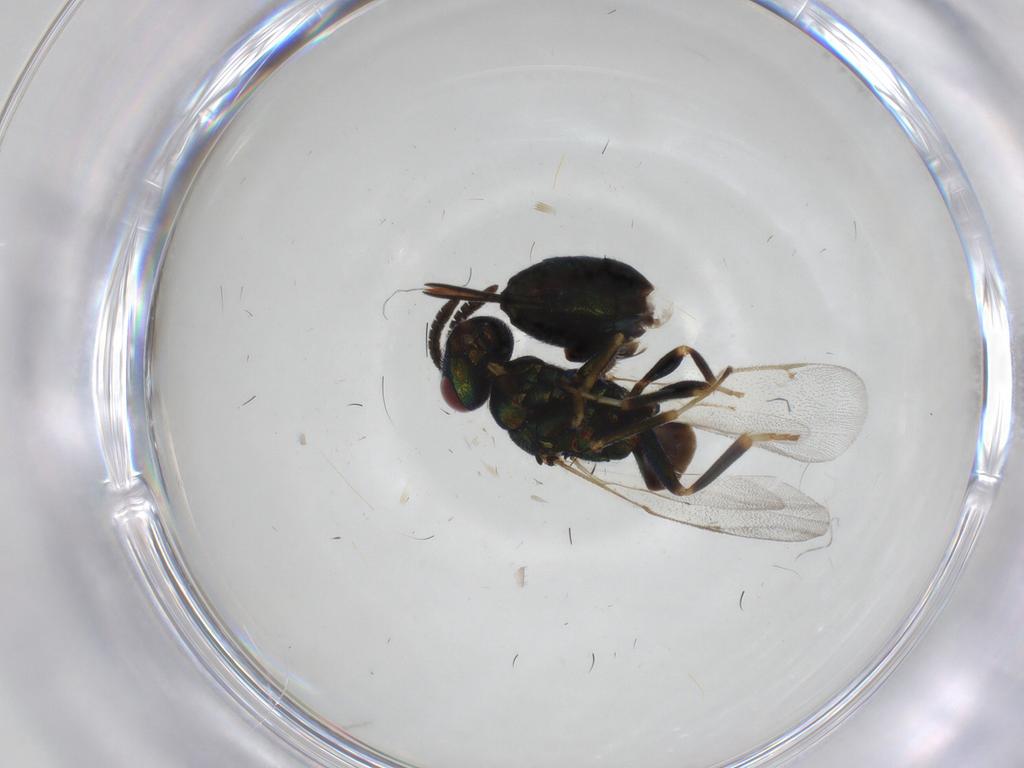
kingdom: Animalia
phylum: Arthropoda
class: Insecta
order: Hymenoptera
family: Torymidae
